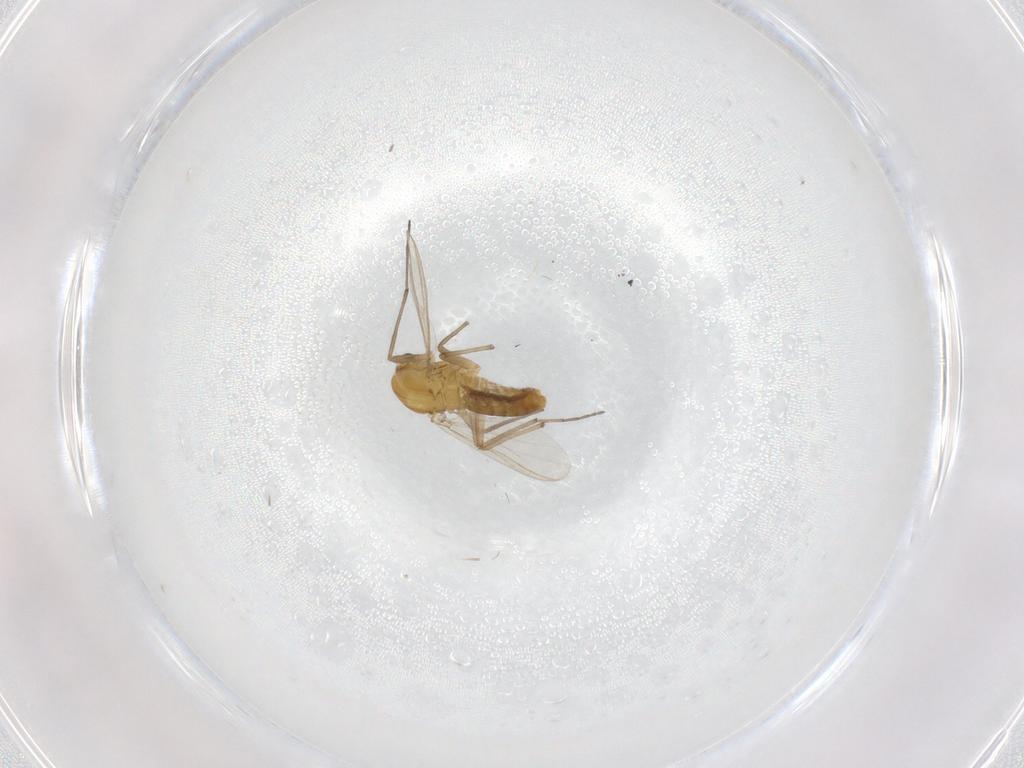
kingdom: Animalia
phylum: Arthropoda
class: Insecta
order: Diptera
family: Chironomidae
